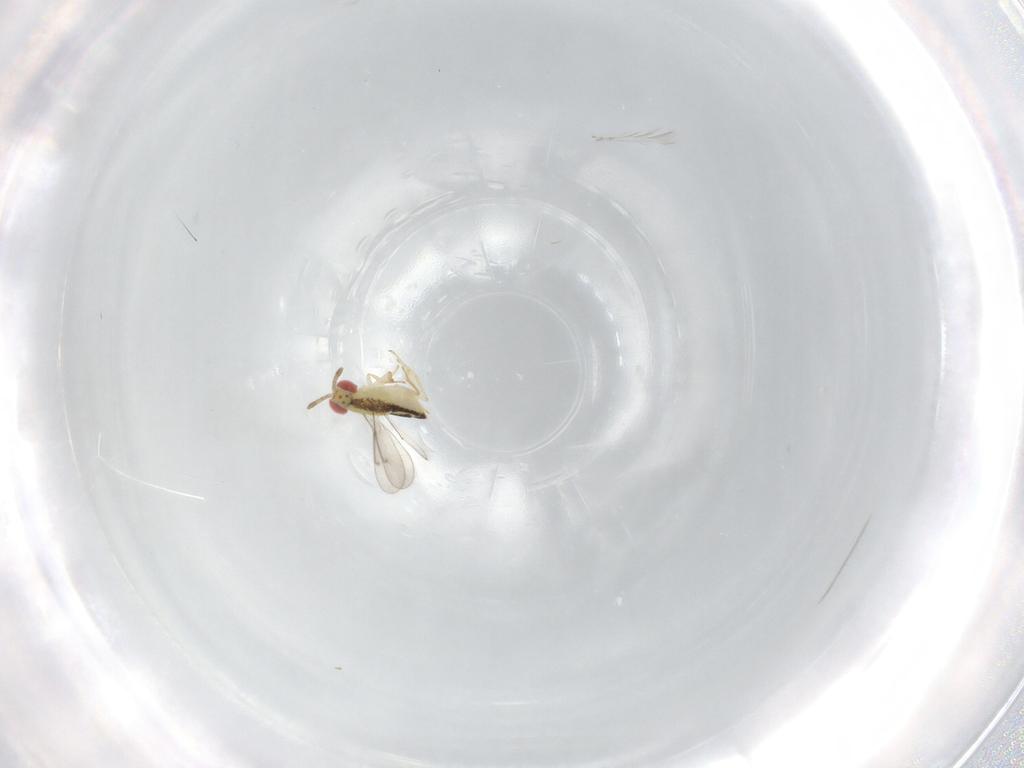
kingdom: Animalia
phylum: Arthropoda
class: Insecta
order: Hymenoptera
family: Aphelinidae
